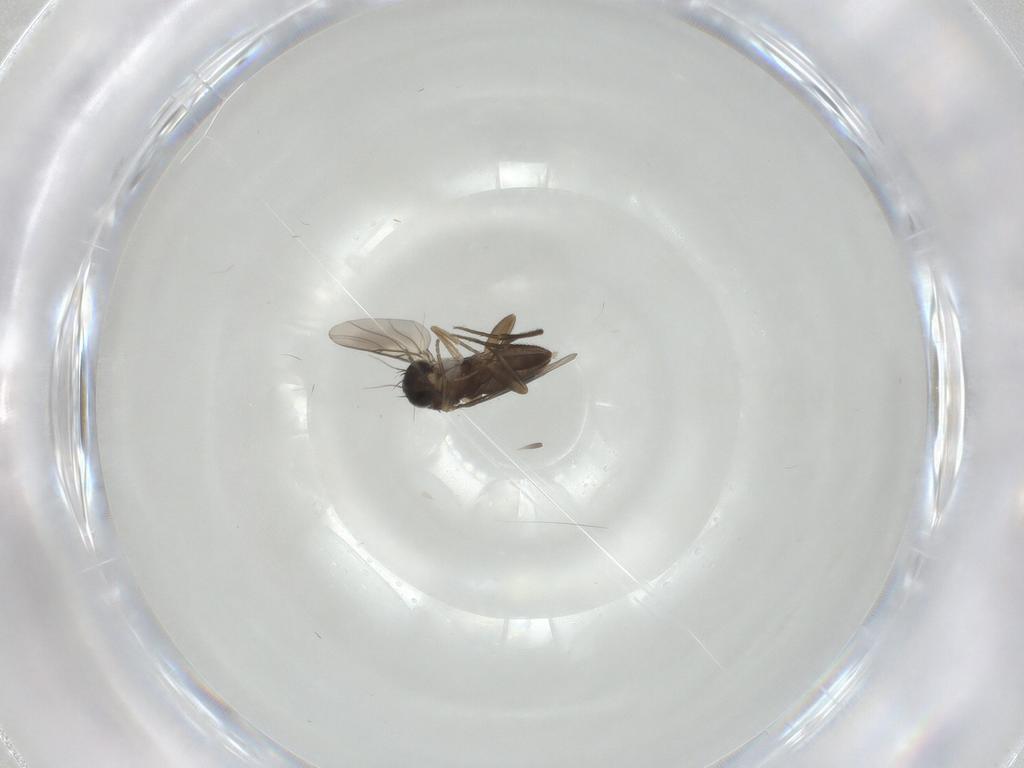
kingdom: Animalia
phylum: Arthropoda
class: Insecta
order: Diptera
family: Phoridae
